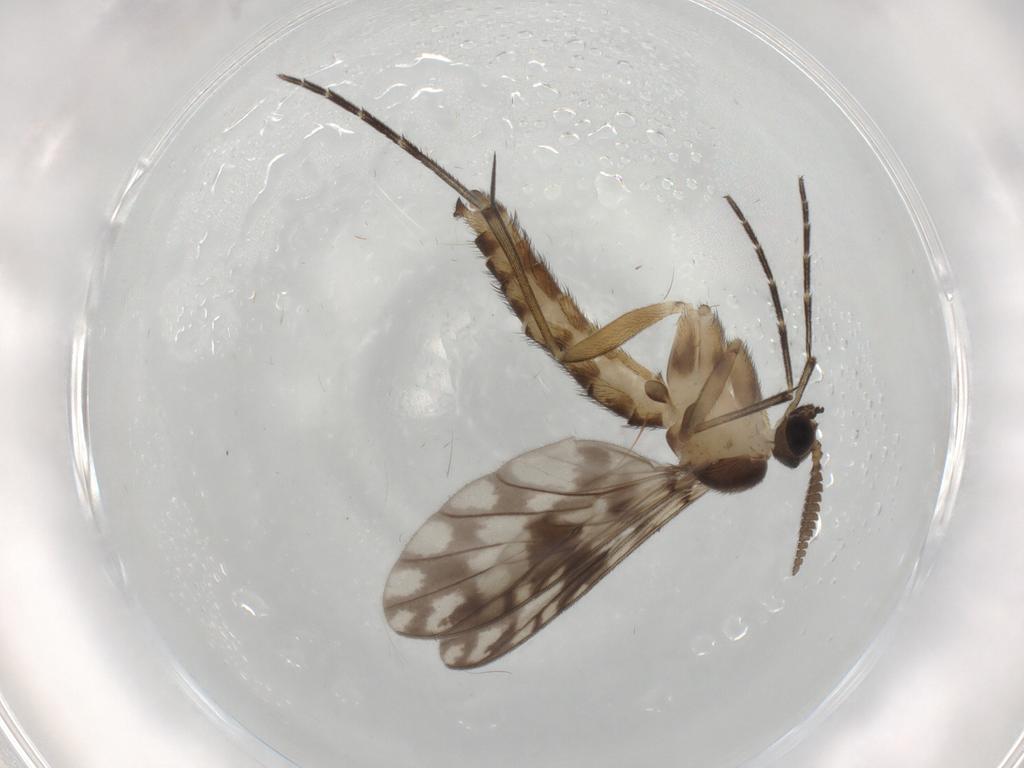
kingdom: Animalia
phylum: Arthropoda
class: Insecta
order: Diptera
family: Keroplatidae
